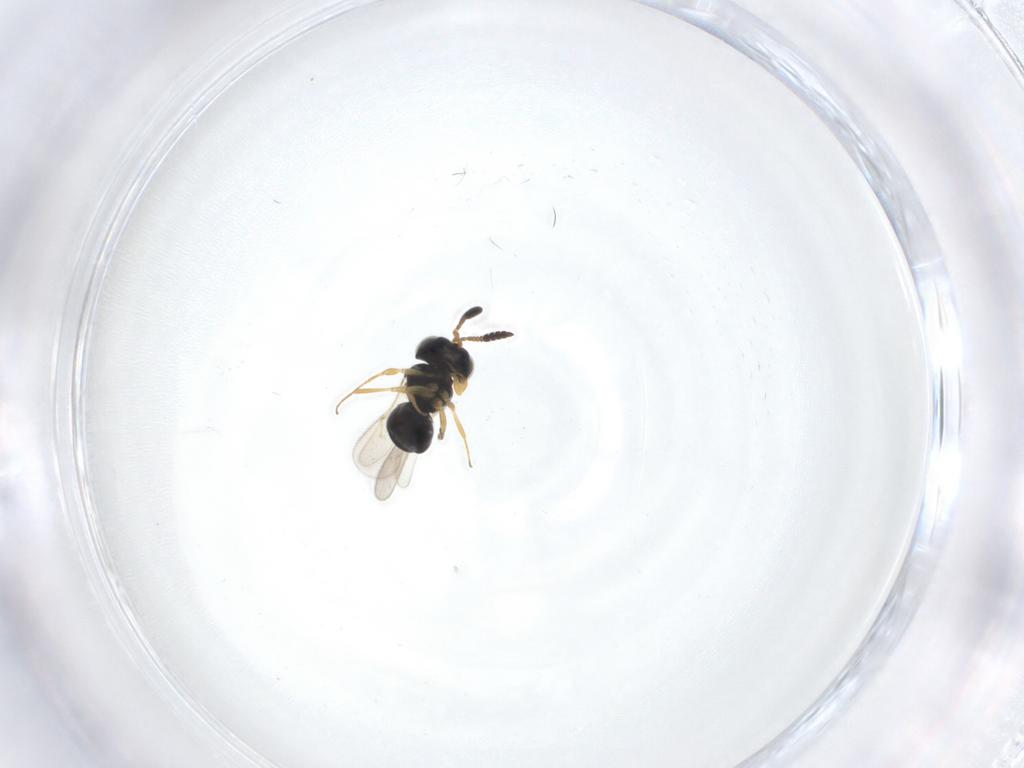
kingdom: Animalia
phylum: Arthropoda
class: Insecta
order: Hymenoptera
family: Scelionidae
